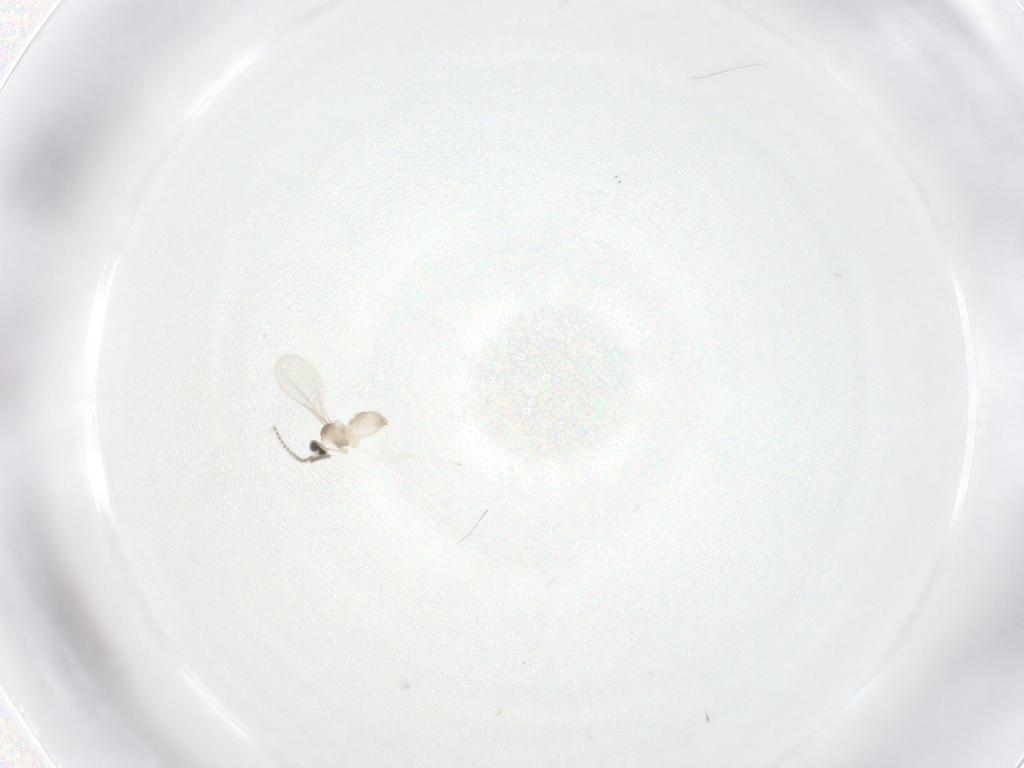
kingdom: Animalia
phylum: Arthropoda
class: Insecta
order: Diptera
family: Cecidomyiidae
